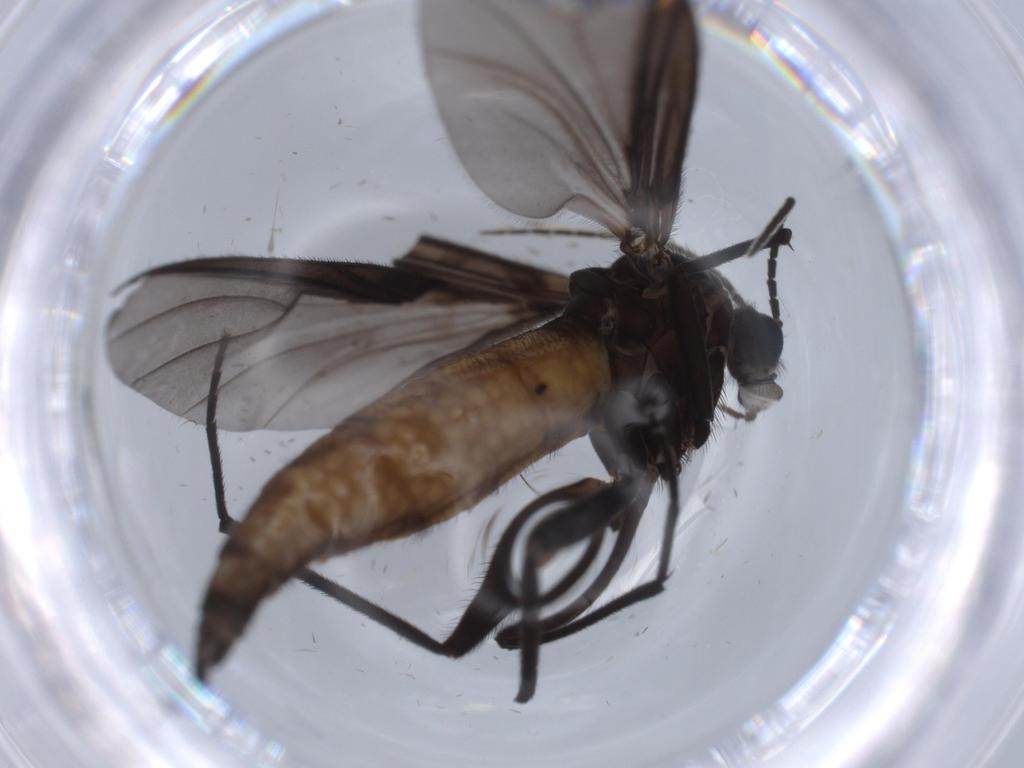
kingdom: Animalia
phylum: Arthropoda
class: Insecta
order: Diptera
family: Sciaridae
